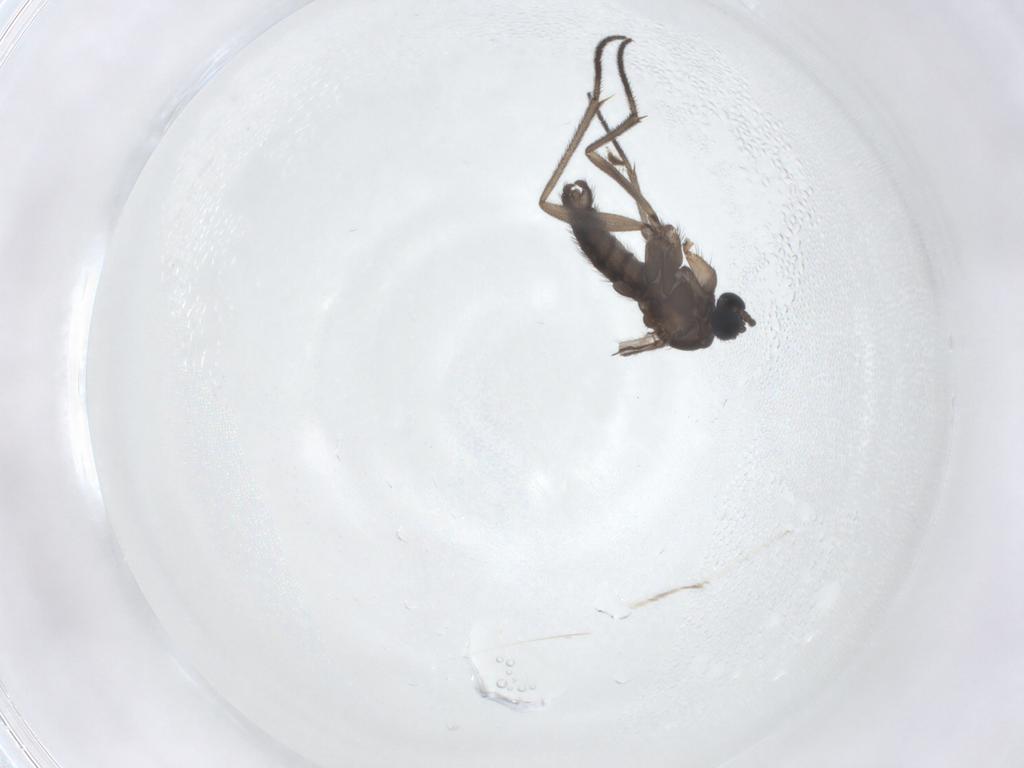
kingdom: Animalia
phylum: Arthropoda
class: Insecta
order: Diptera
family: Sciaridae
